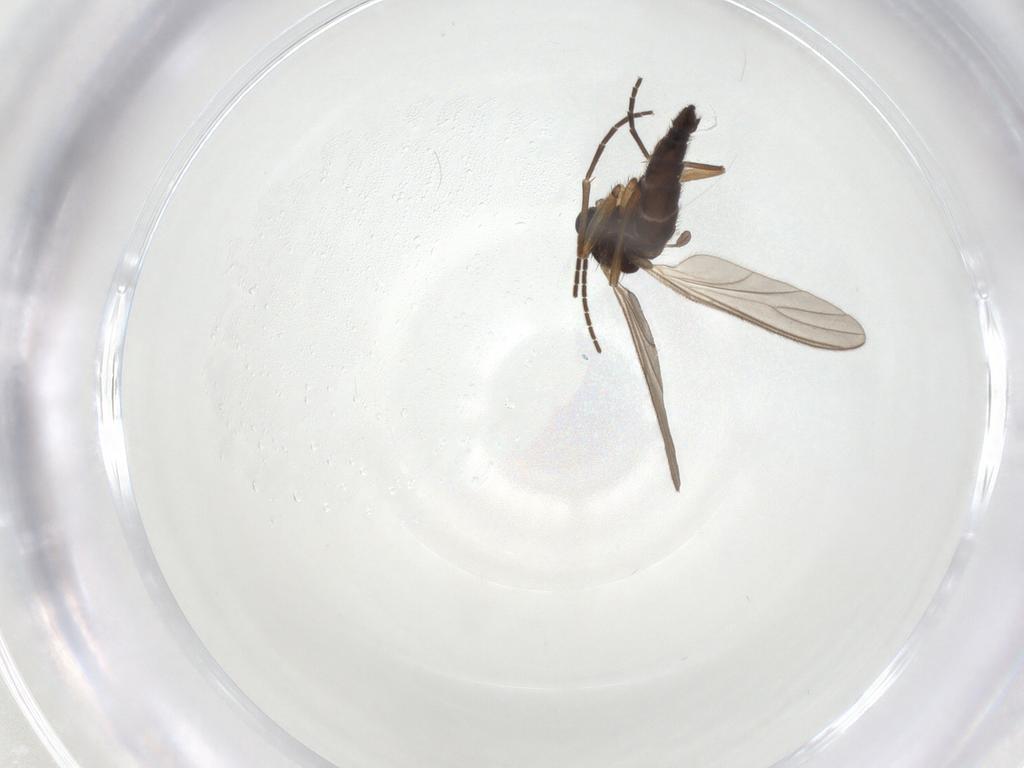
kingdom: Animalia
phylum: Arthropoda
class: Insecta
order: Diptera
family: Sciaridae
